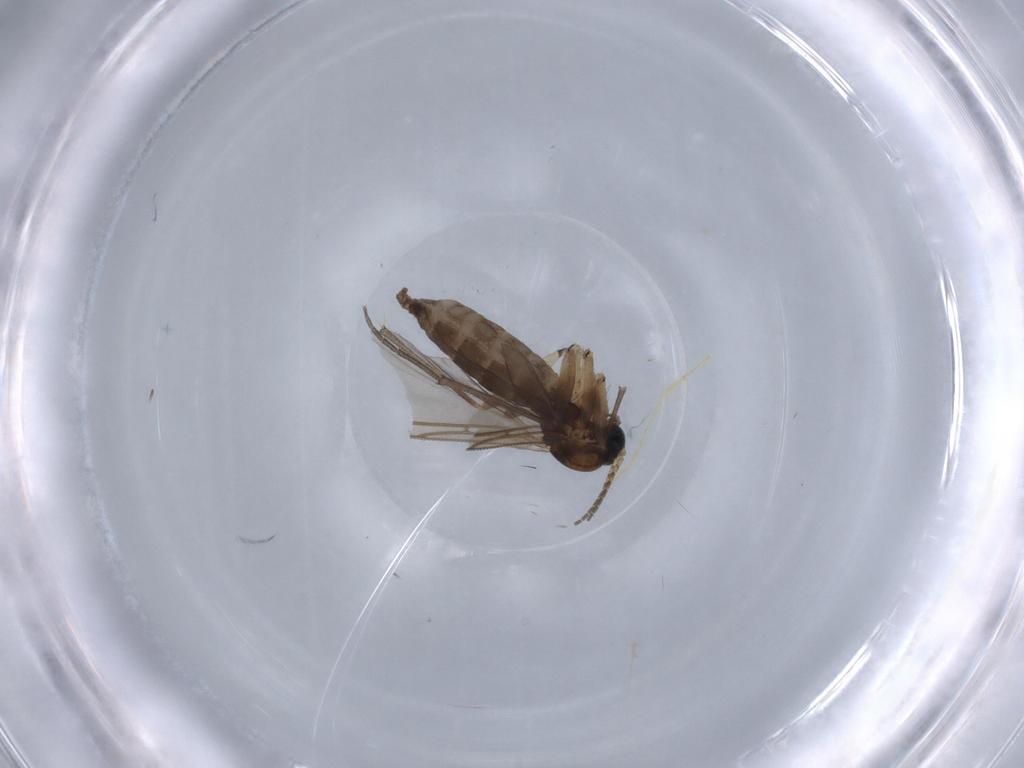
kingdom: Animalia
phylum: Arthropoda
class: Insecta
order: Diptera
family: Sciaridae
